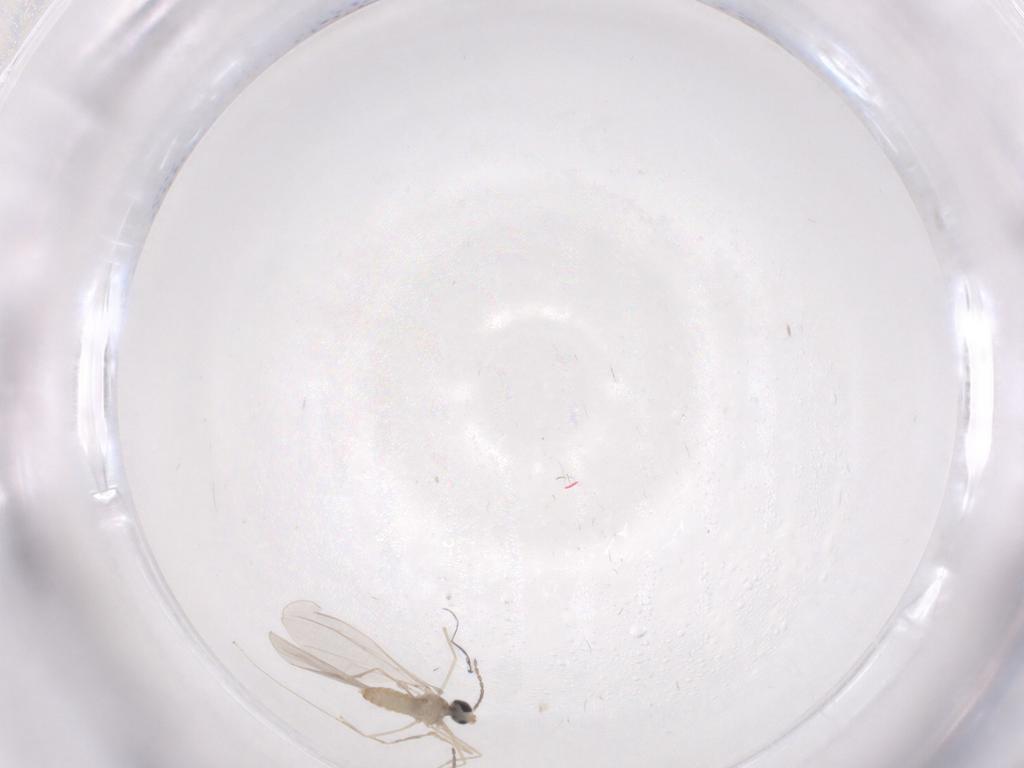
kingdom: Animalia
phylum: Arthropoda
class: Insecta
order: Diptera
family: Cecidomyiidae
